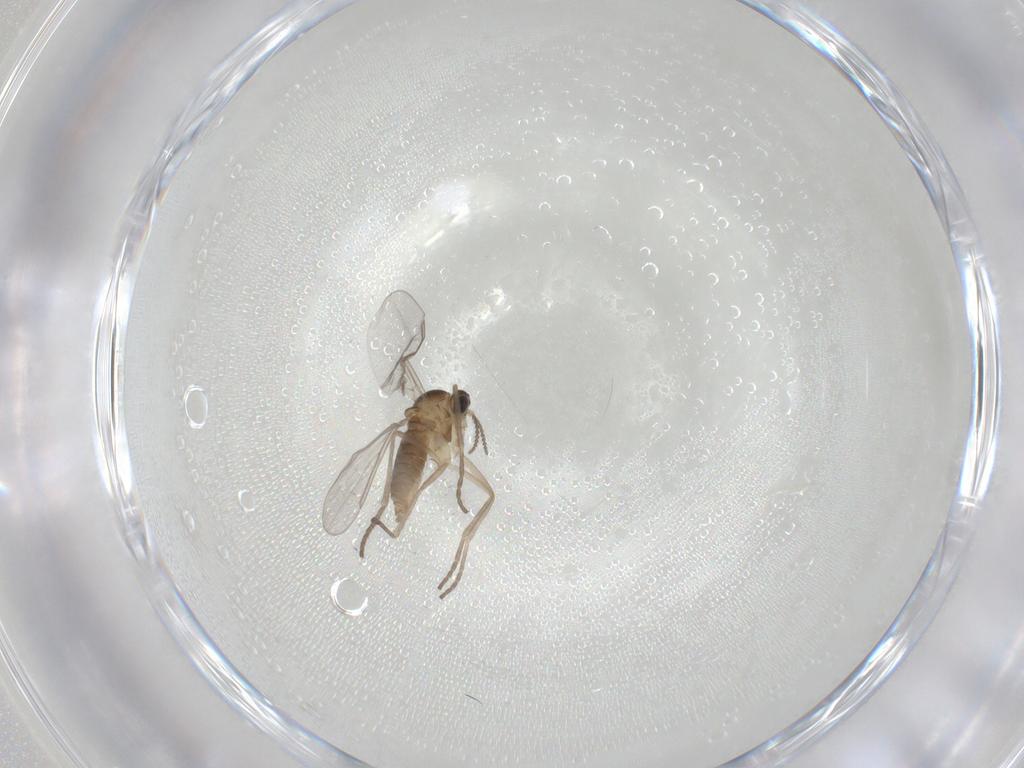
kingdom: Animalia
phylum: Arthropoda
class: Insecta
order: Diptera
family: Cecidomyiidae
